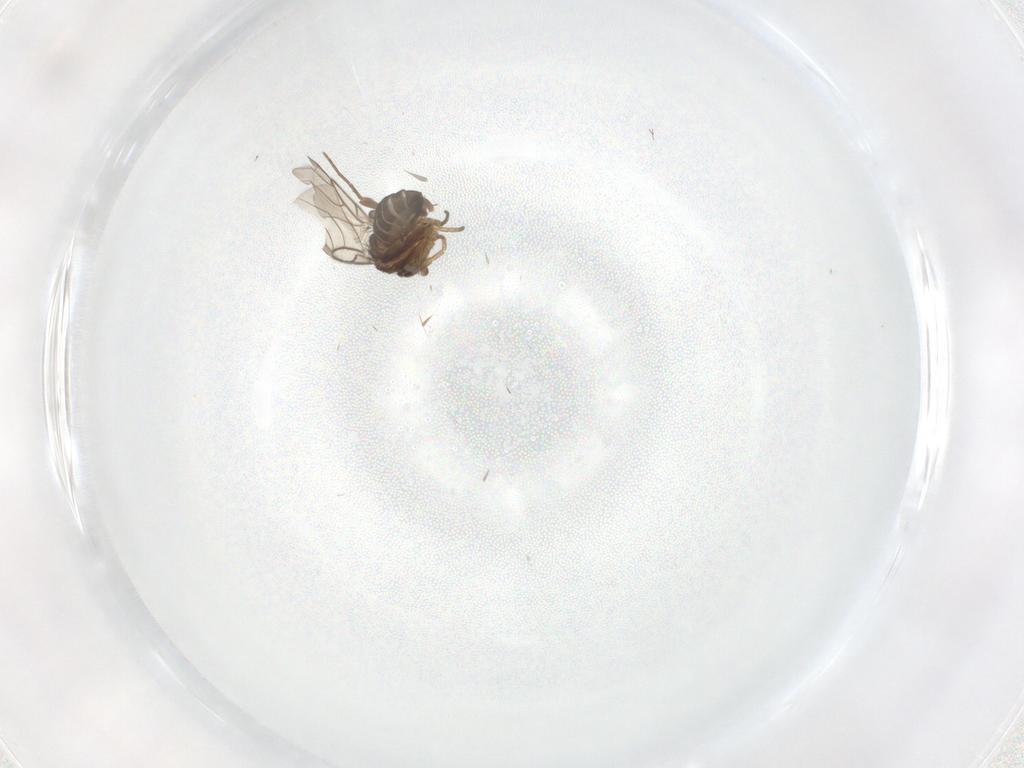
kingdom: Animalia
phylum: Arthropoda
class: Insecta
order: Diptera
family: Phoridae
